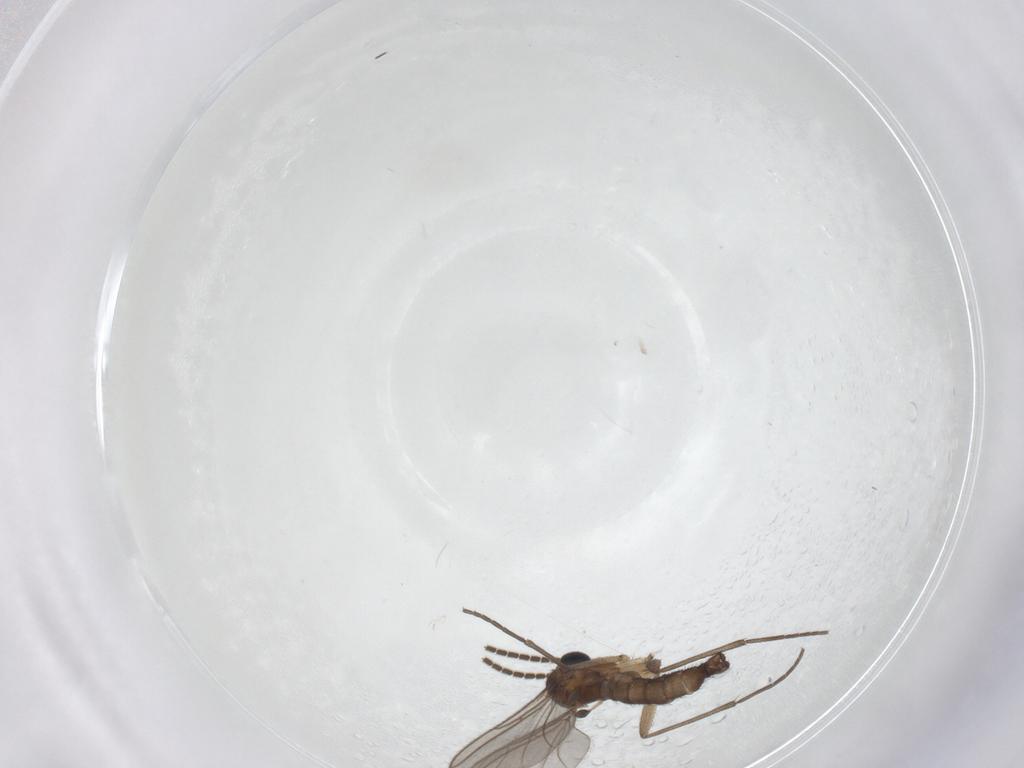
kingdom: Animalia
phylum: Arthropoda
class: Insecta
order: Diptera
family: Sciaridae
